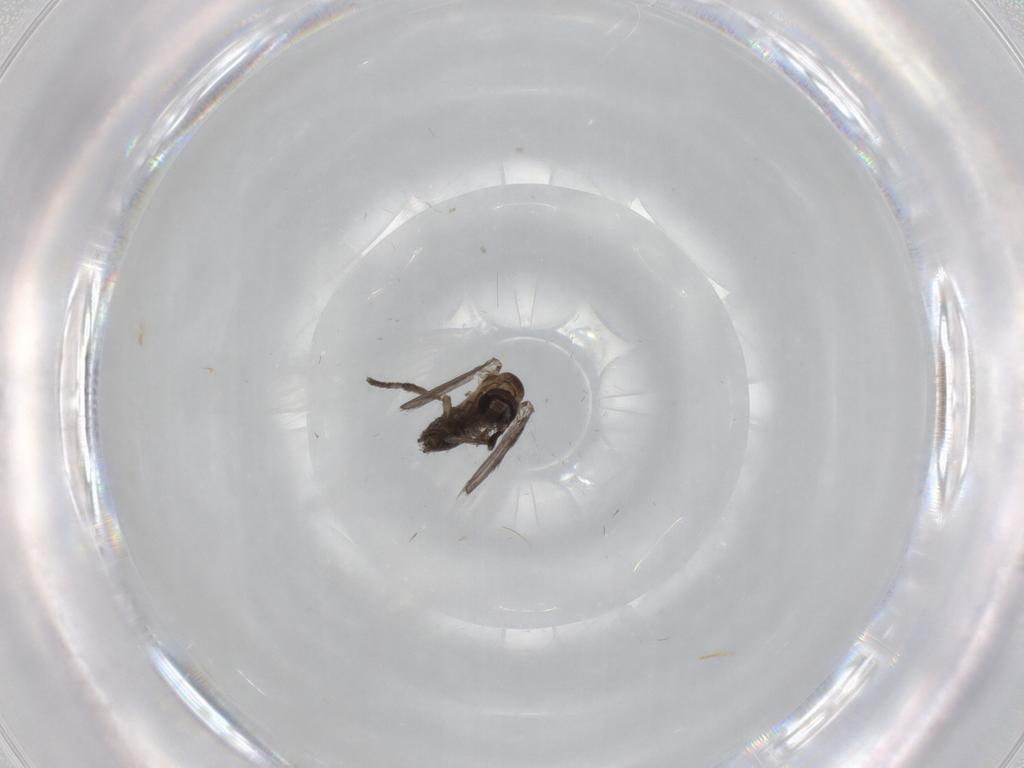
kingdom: Animalia
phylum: Arthropoda
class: Insecta
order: Diptera
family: Psychodidae
